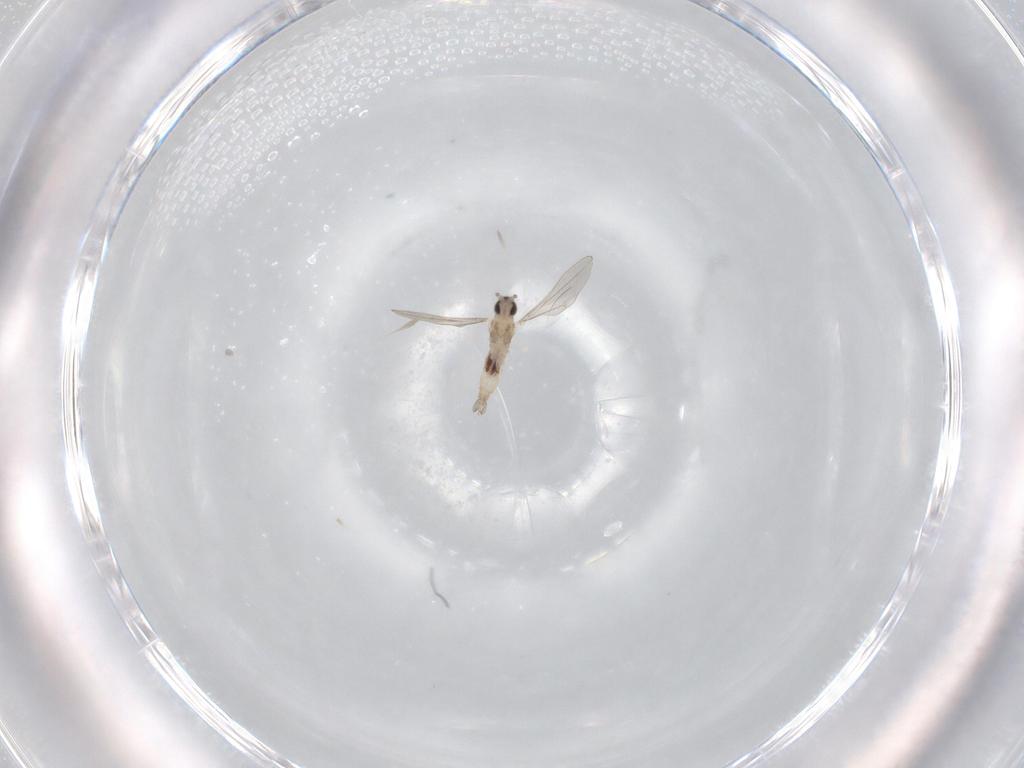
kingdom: Animalia
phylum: Arthropoda
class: Insecta
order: Diptera
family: Cecidomyiidae
